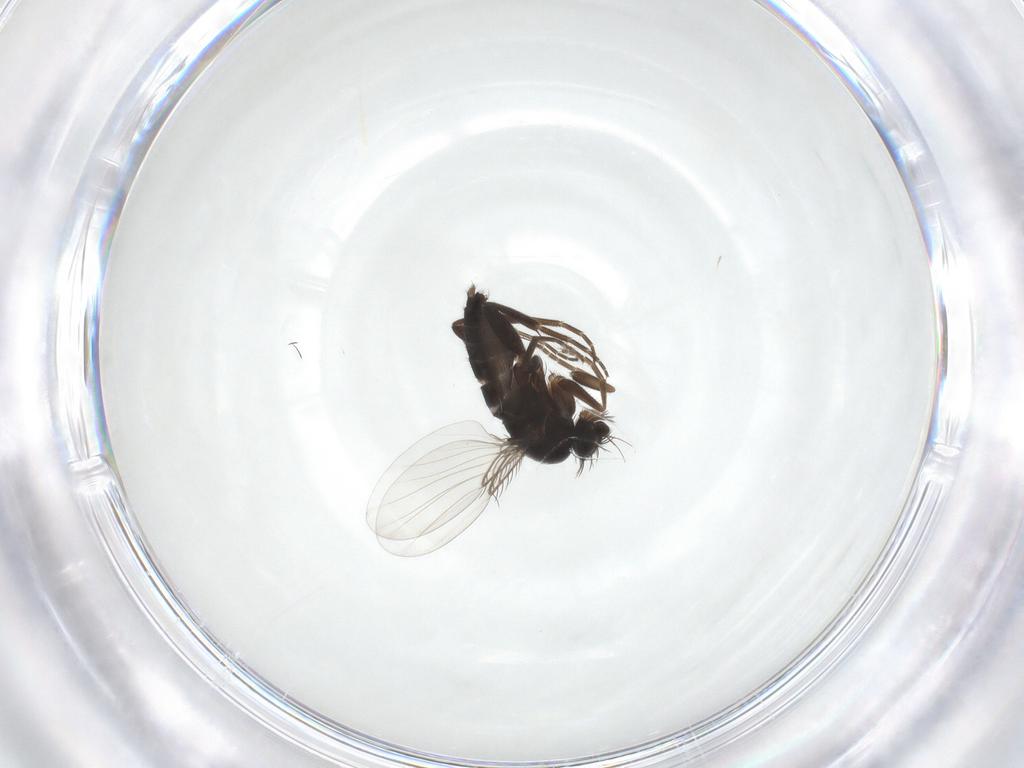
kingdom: Animalia
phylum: Arthropoda
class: Insecta
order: Diptera
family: Phoridae
